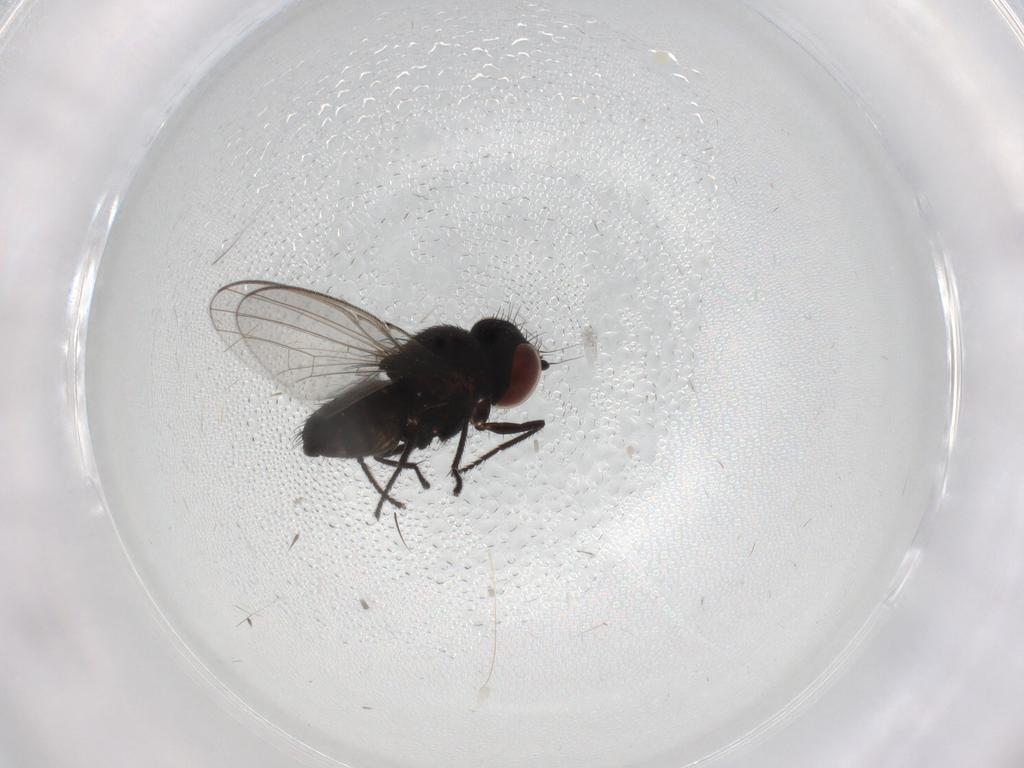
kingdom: Animalia
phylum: Arthropoda
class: Insecta
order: Diptera
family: Milichiidae
